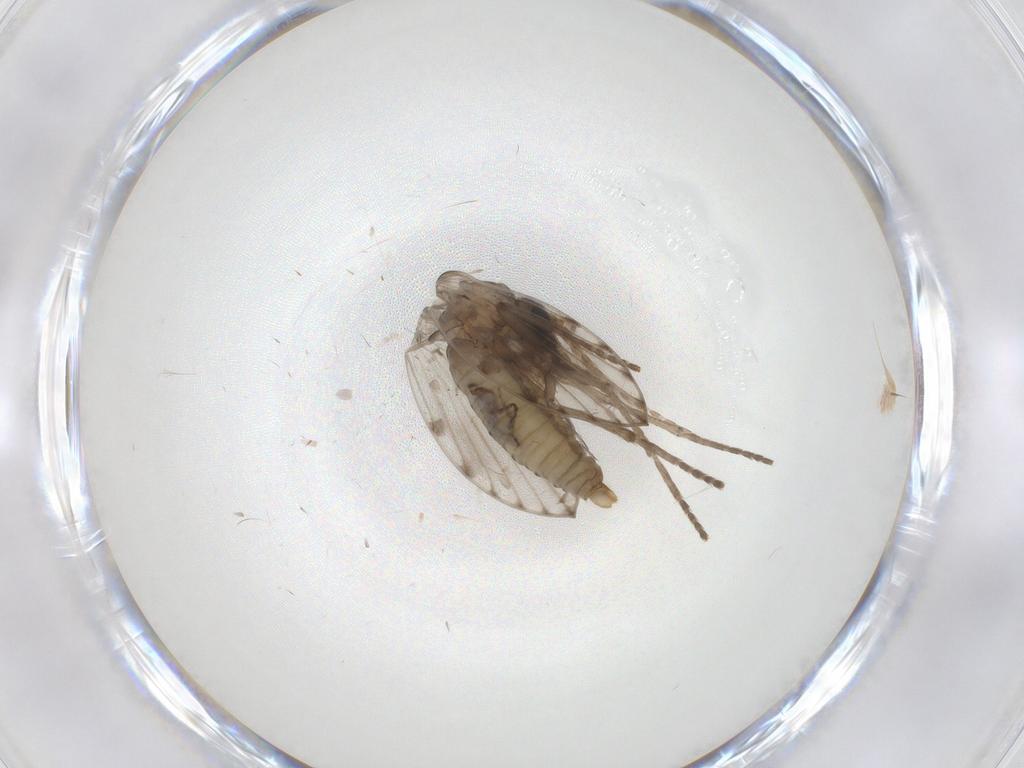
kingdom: Animalia
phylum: Arthropoda
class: Insecta
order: Diptera
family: Psychodidae
